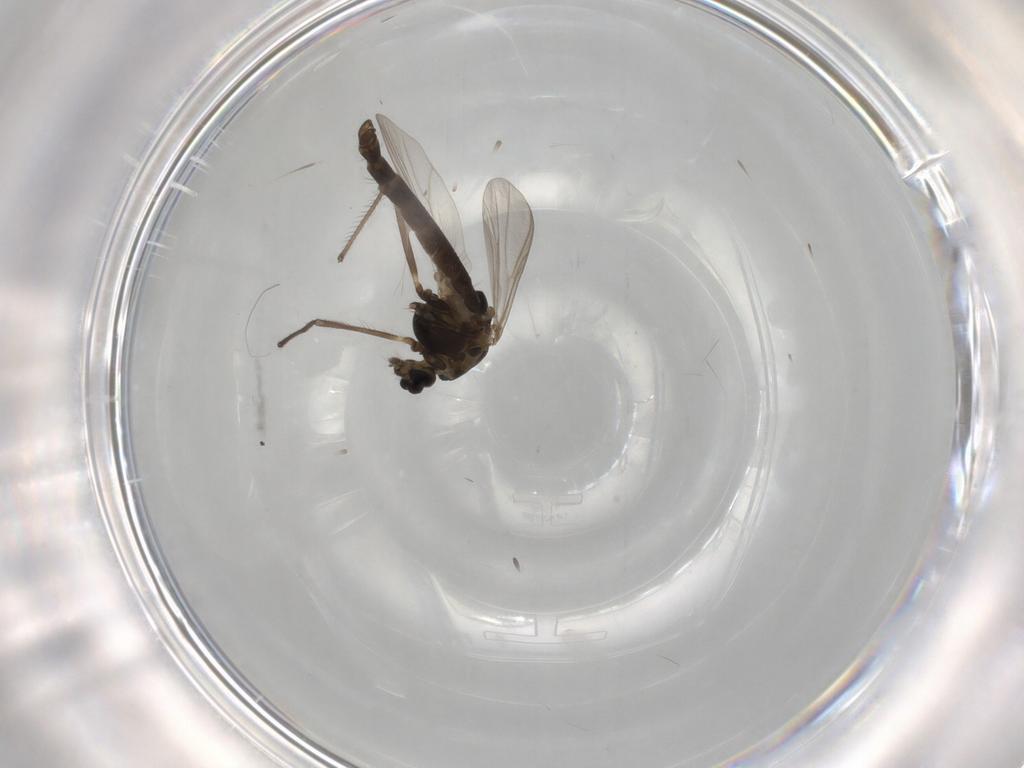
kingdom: Animalia
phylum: Arthropoda
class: Insecta
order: Diptera
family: Chironomidae
